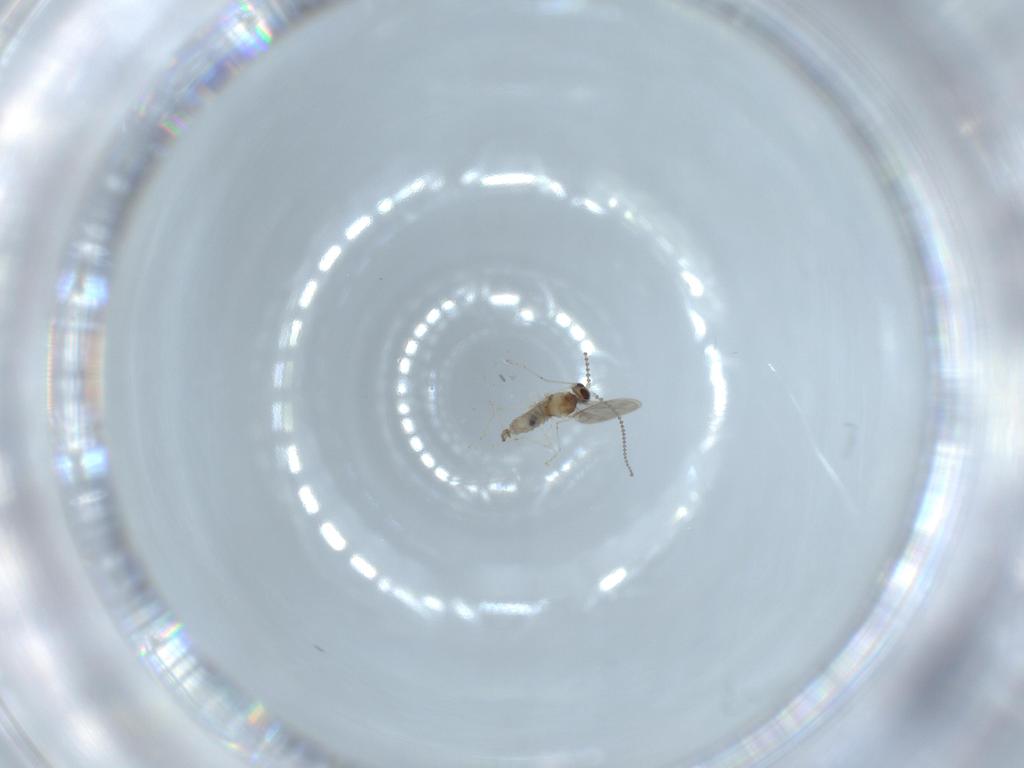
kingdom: Animalia
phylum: Arthropoda
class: Insecta
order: Diptera
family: Cecidomyiidae
